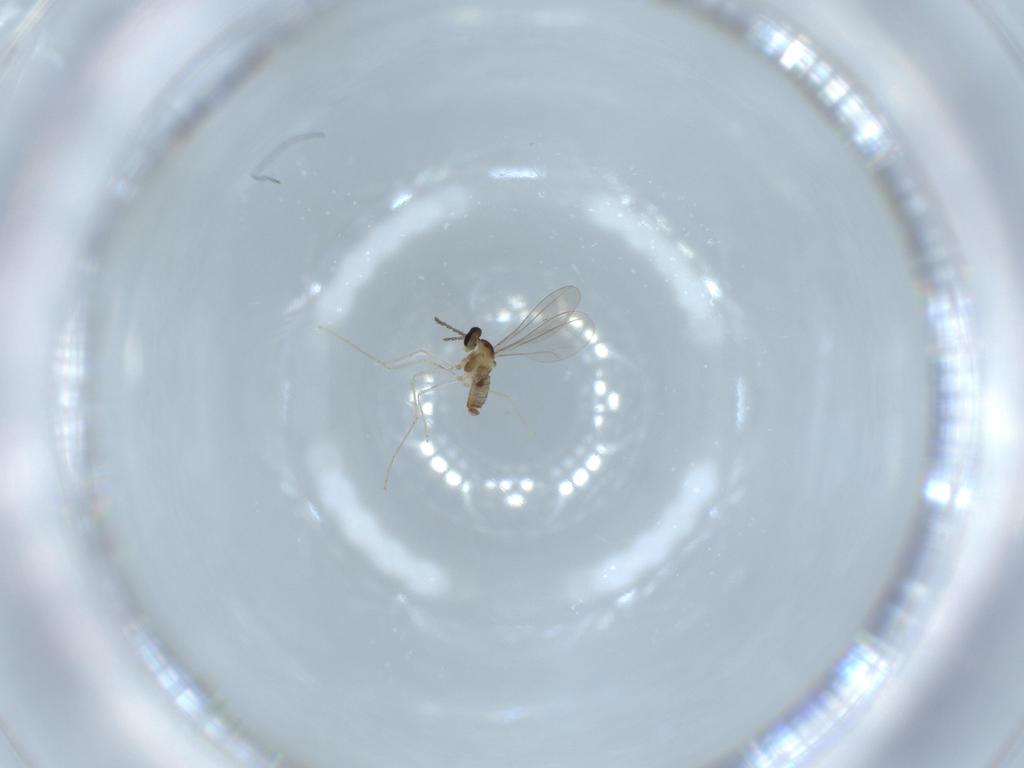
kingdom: Animalia
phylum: Arthropoda
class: Insecta
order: Diptera
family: Cecidomyiidae
